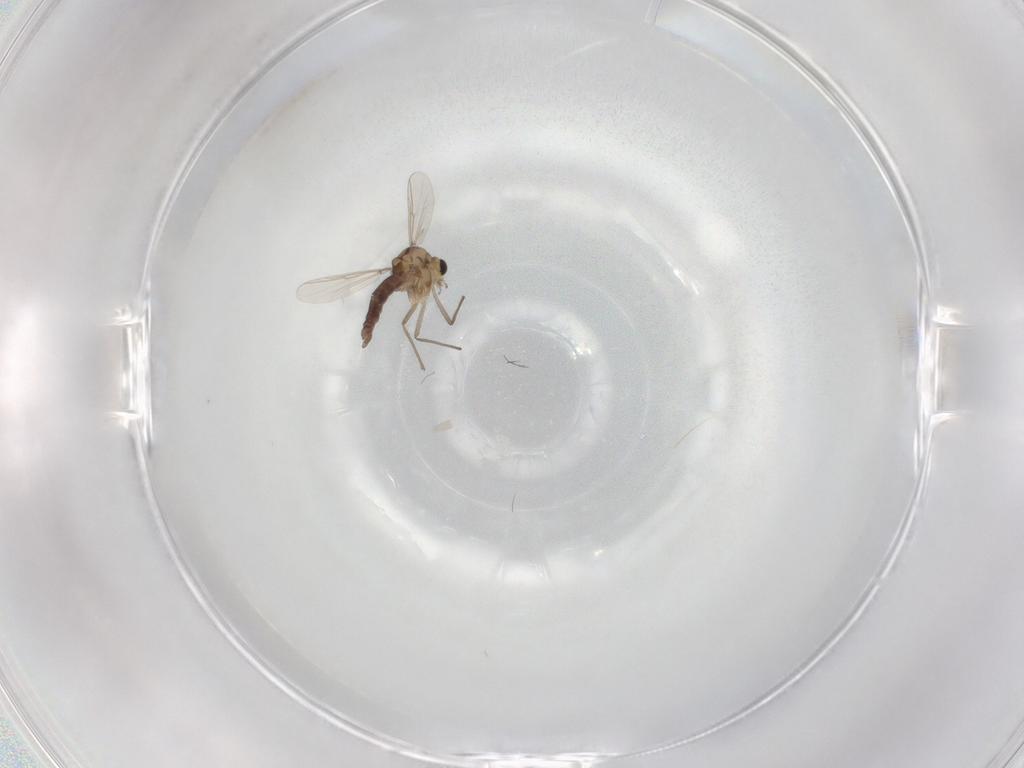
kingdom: Animalia
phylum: Arthropoda
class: Insecta
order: Diptera
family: Chironomidae
